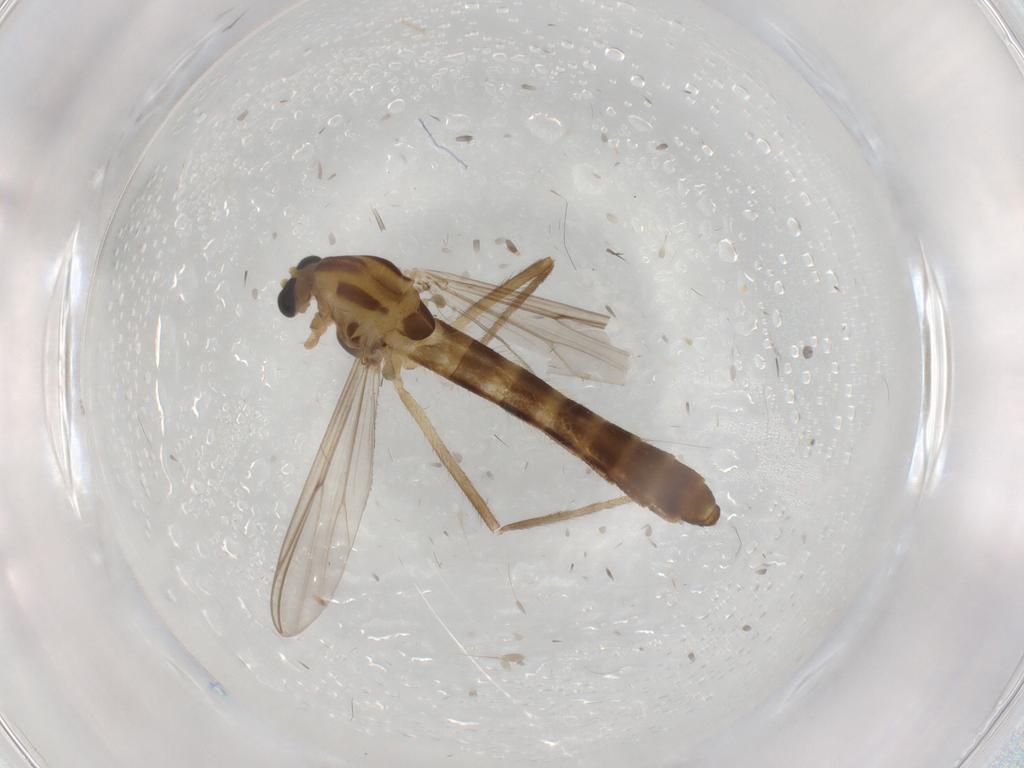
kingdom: Animalia
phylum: Arthropoda
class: Insecta
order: Diptera
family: Chironomidae
